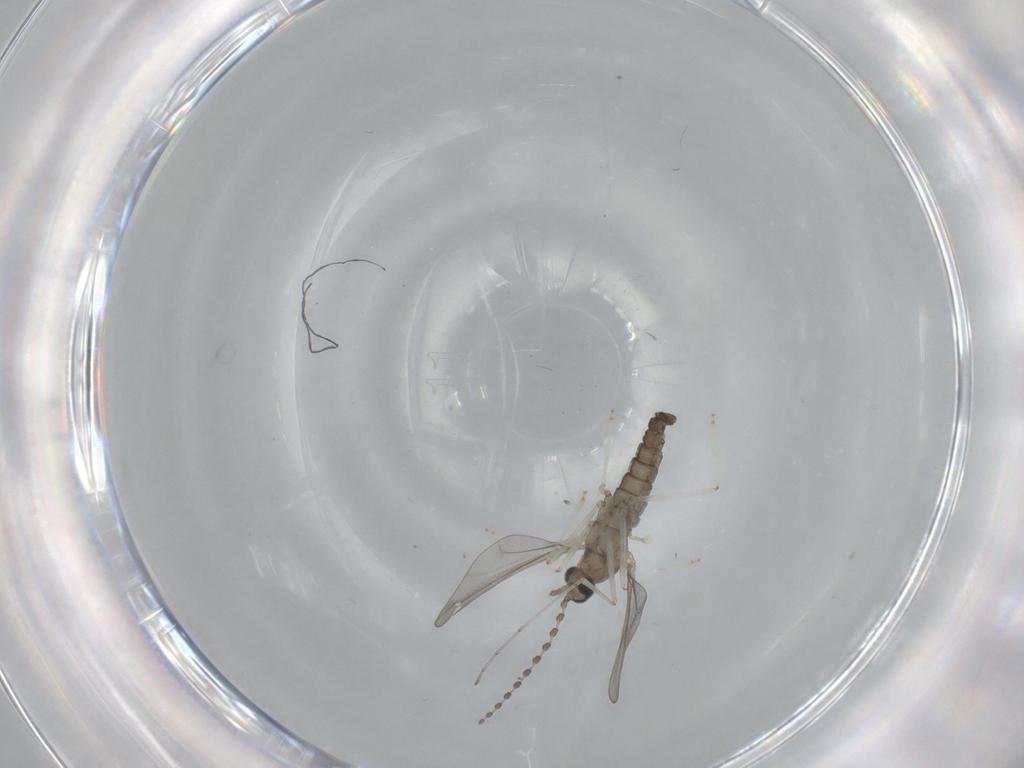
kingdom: Animalia
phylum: Arthropoda
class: Insecta
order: Diptera
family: Cecidomyiidae
